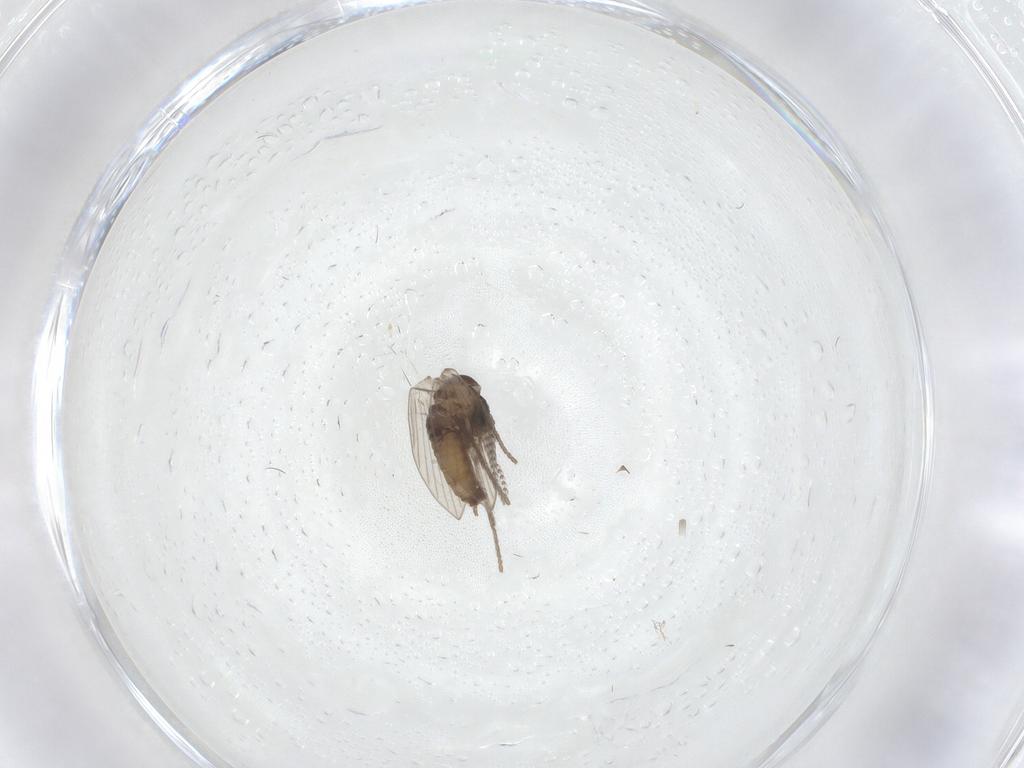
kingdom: Animalia
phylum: Arthropoda
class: Insecta
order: Diptera
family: Psychodidae
